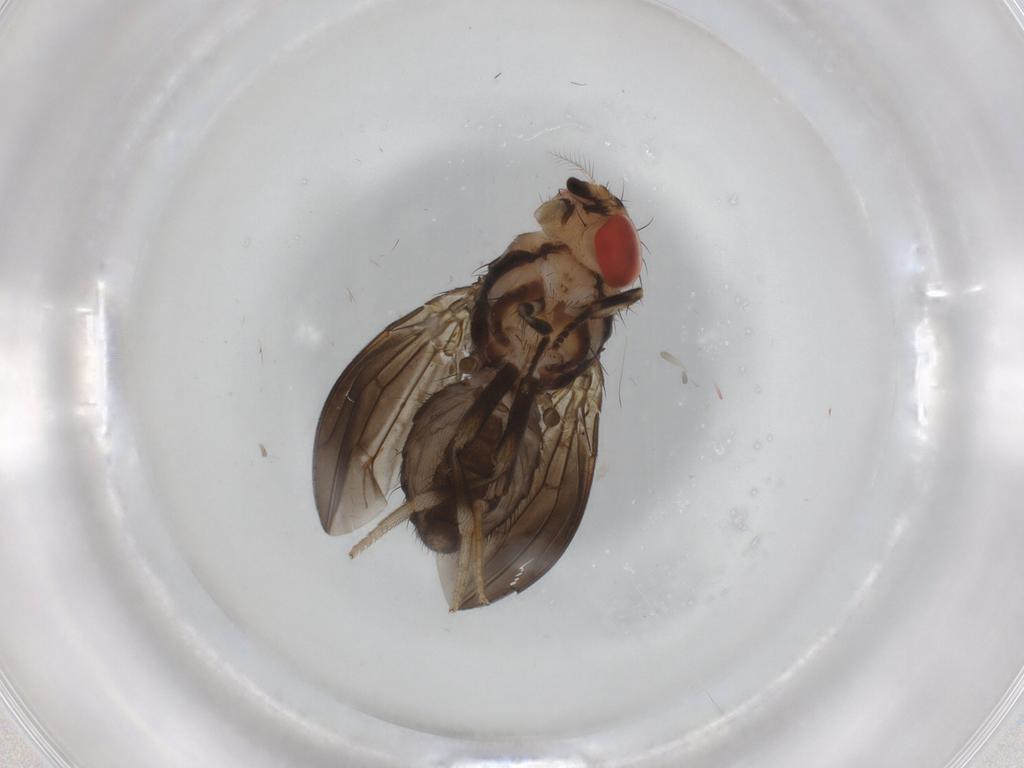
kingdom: Animalia
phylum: Arthropoda
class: Insecta
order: Diptera
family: Drosophilidae
